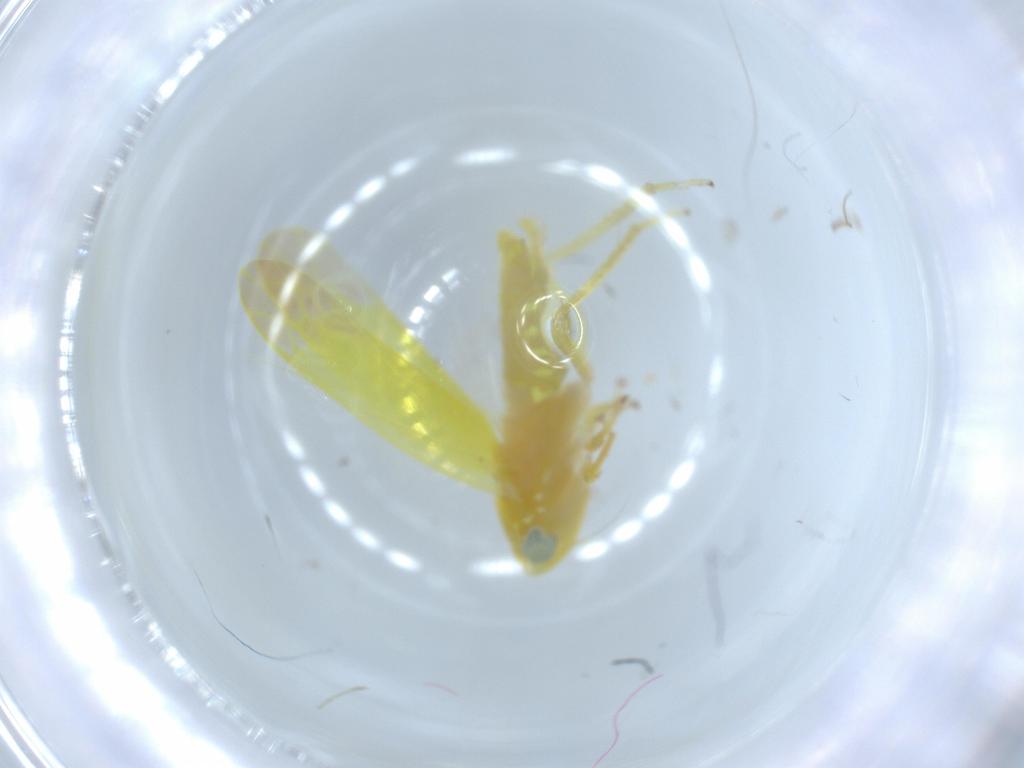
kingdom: Animalia
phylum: Arthropoda
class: Insecta
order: Hemiptera
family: Cicadellidae
